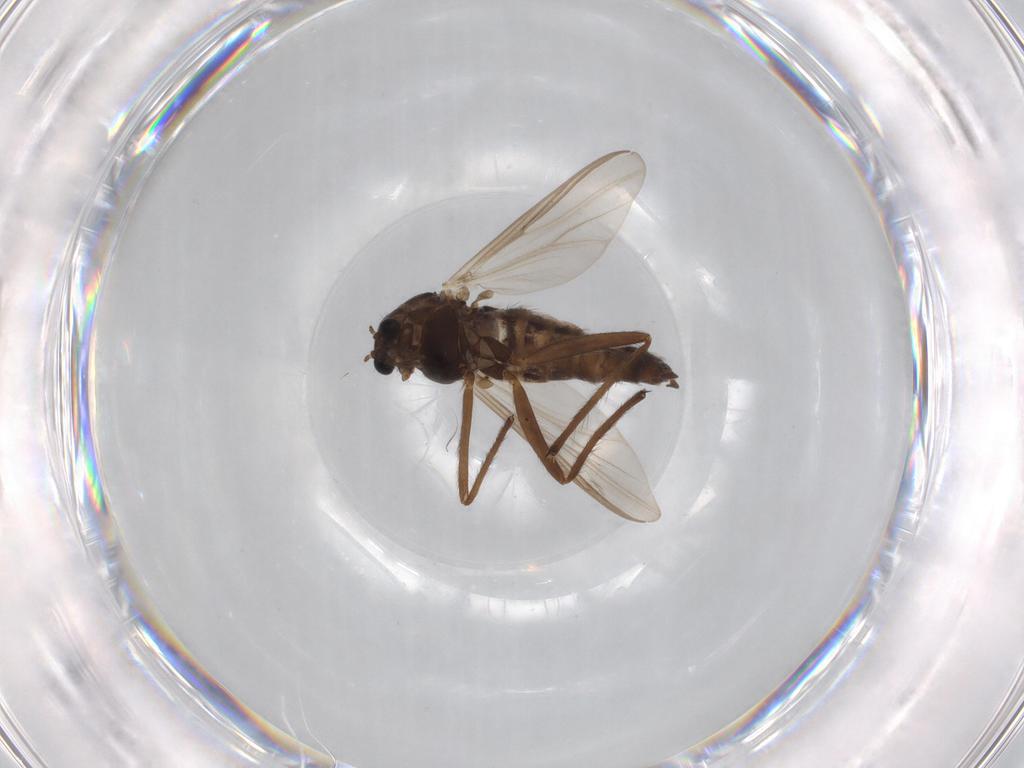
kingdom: Animalia
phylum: Arthropoda
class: Insecta
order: Diptera
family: Chironomidae
